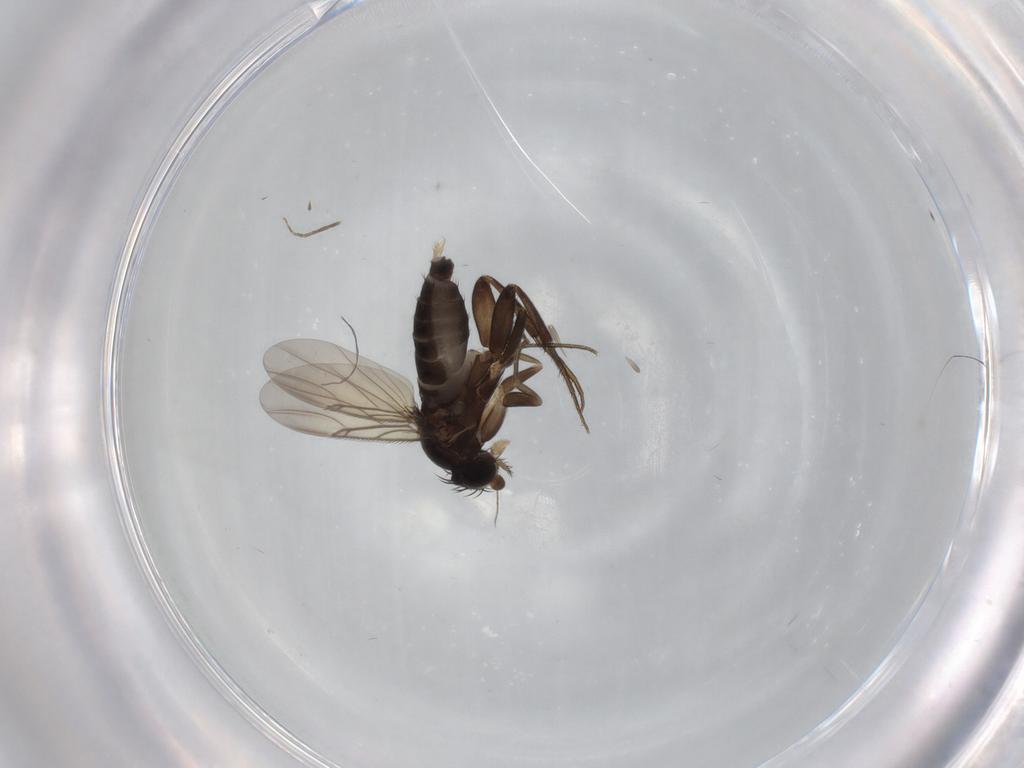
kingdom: Animalia
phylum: Arthropoda
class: Insecta
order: Diptera
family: Phoridae
